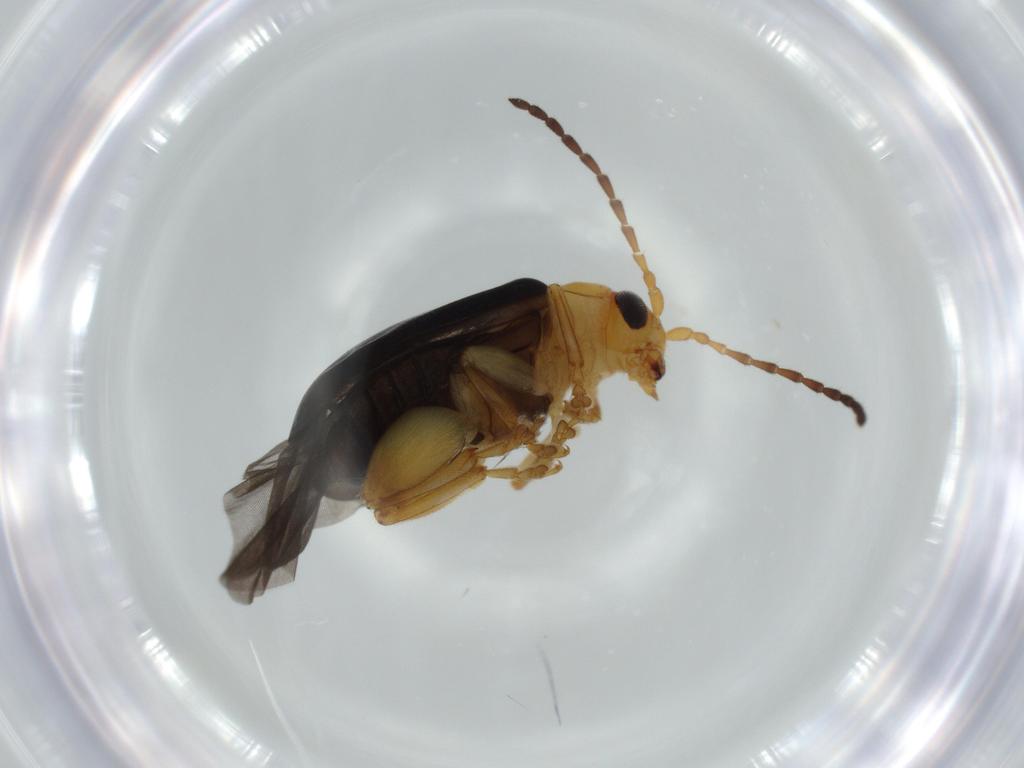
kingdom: Animalia
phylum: Arthropoda
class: Insecta
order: Coleoptera
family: Chrysomelidae
